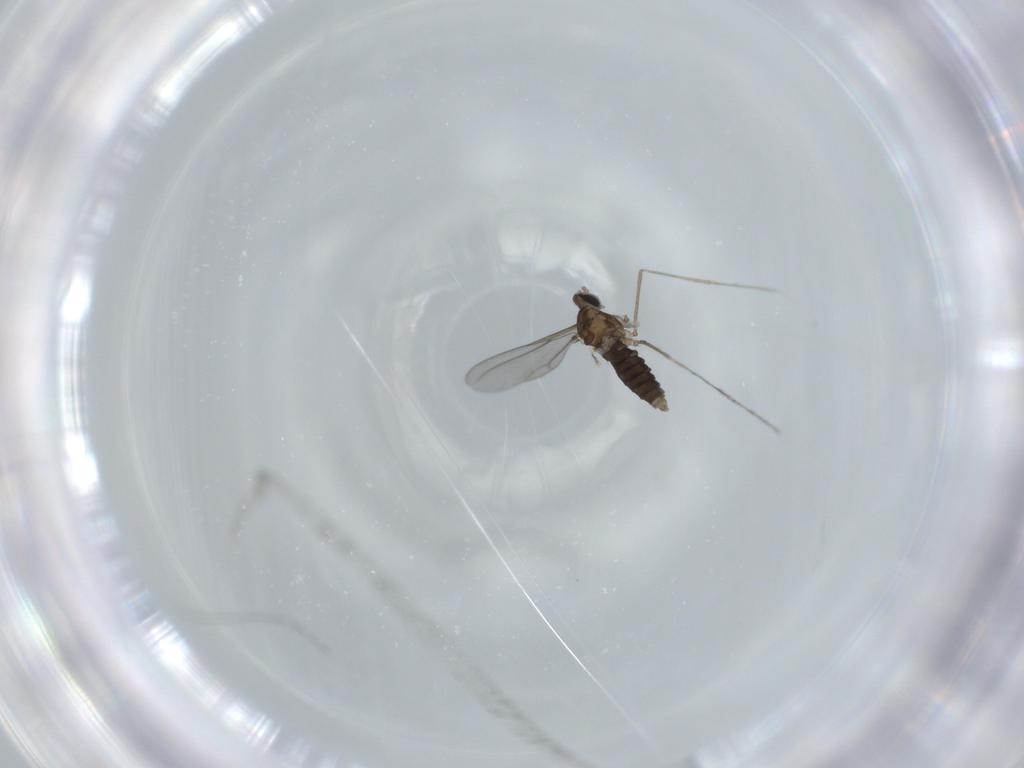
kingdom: Animalia
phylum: Arthropoda
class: Insecta
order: Diptera
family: Cecidomyiidae
